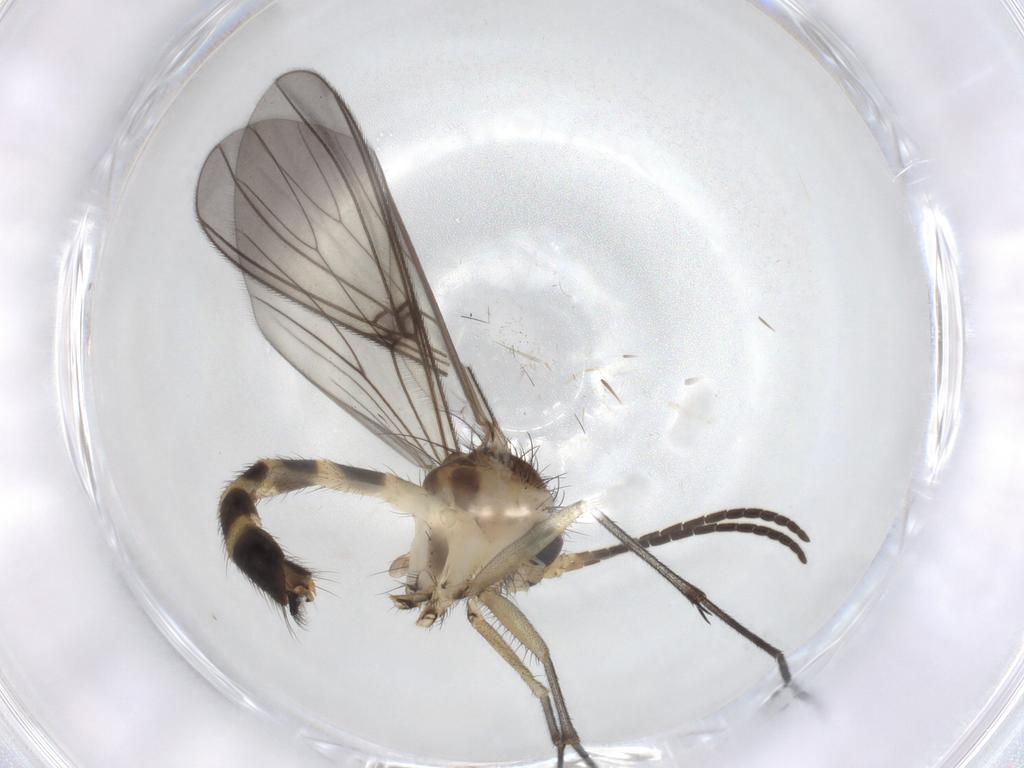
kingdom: Animalia
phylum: Arthropoda
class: Insecta
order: Diptera
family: Mycetophilidae
